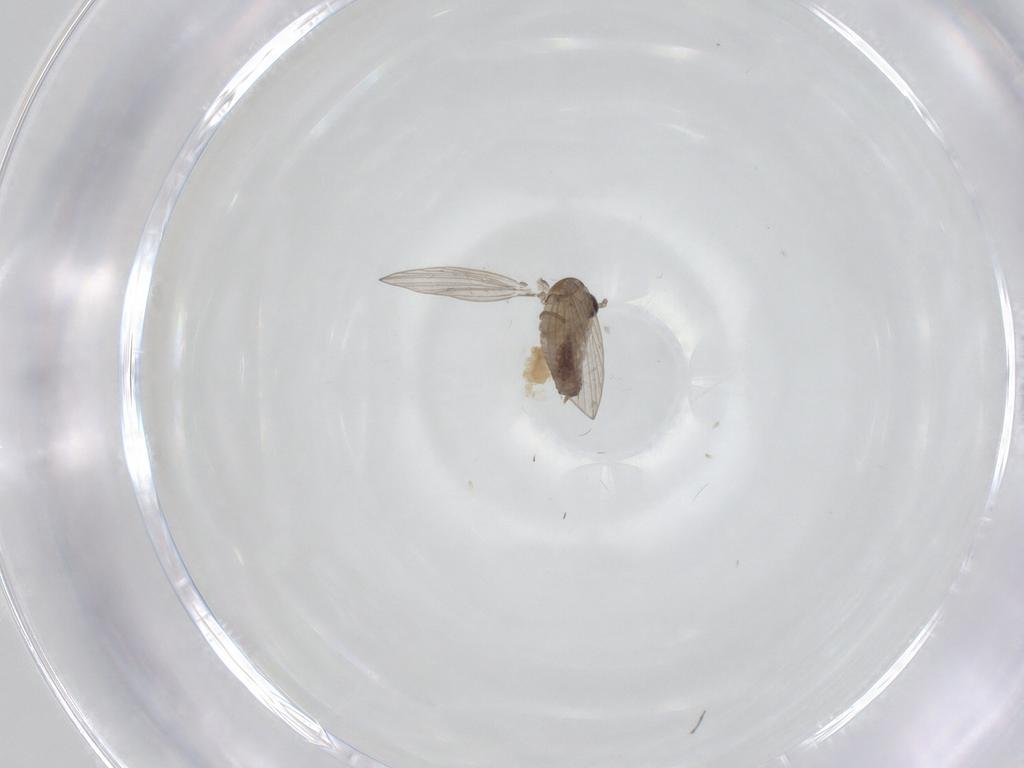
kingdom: Animalia
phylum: Arthropoda
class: Insecta
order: Diptera
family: Psychodidae
